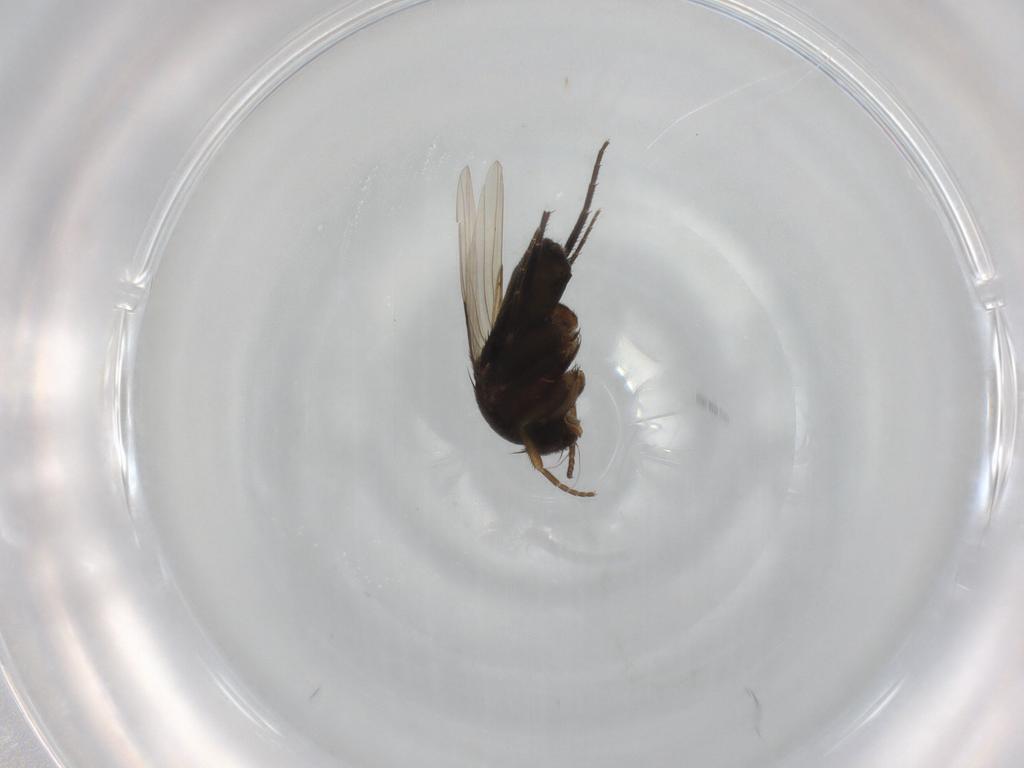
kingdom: Animalia
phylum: Arthropoda
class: Insecta
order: Diptera
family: Phoridae
